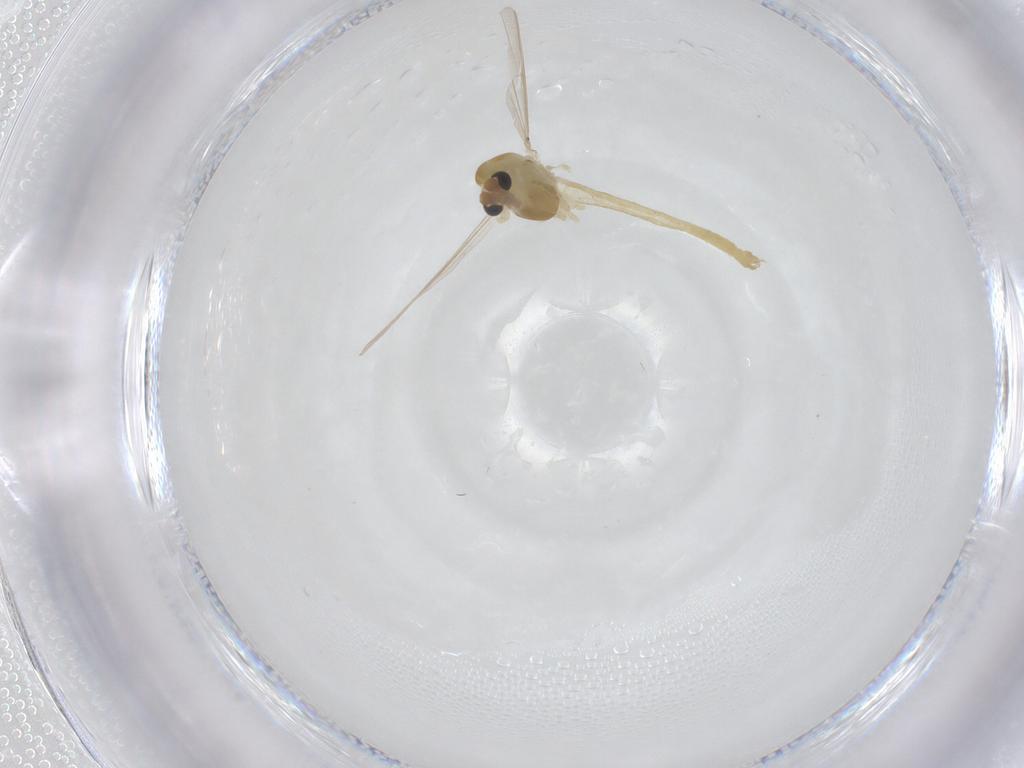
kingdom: Animalia
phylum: Arthropoda
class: Insecta
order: Diptera
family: Chironomidae
